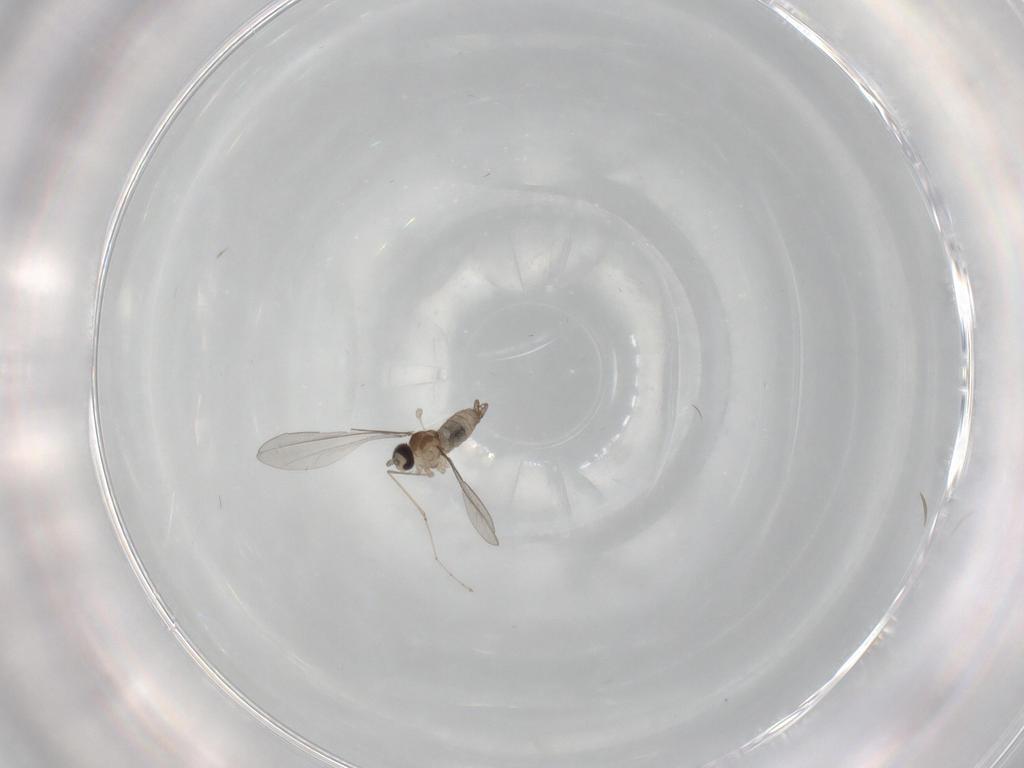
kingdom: Animalia
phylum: Arthropoda
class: Insecta
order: Diptera
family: Cecidomyiidae
